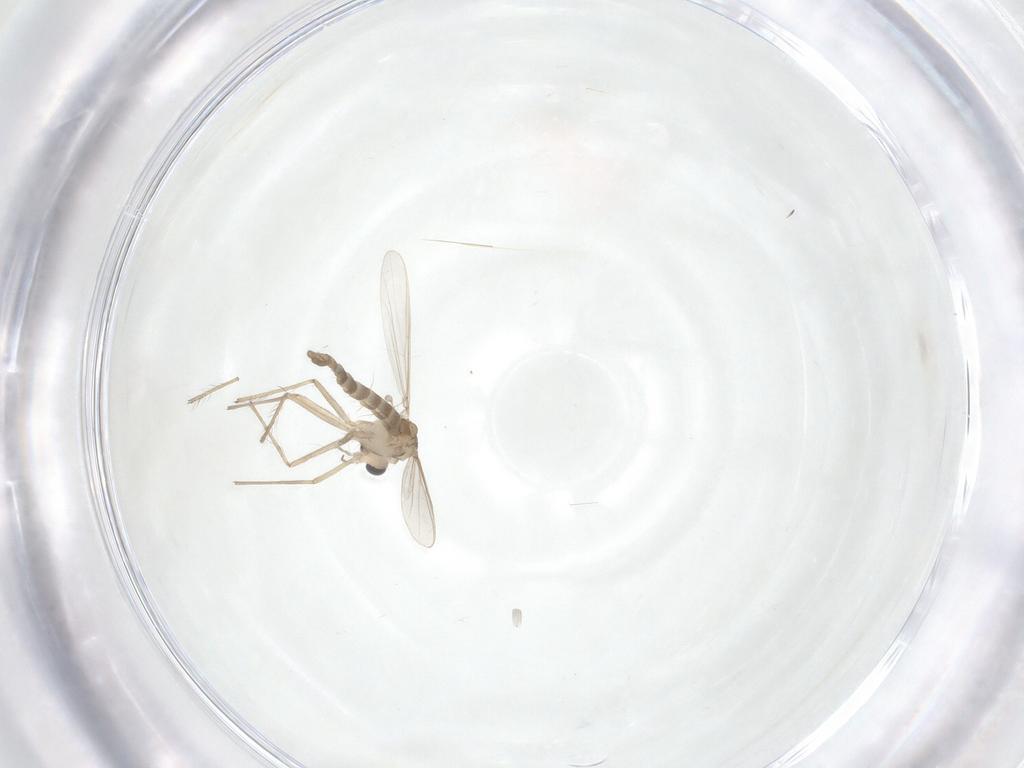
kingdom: Animalia
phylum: Arthropoda
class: Insecta
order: Diptera
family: Chironomidae
